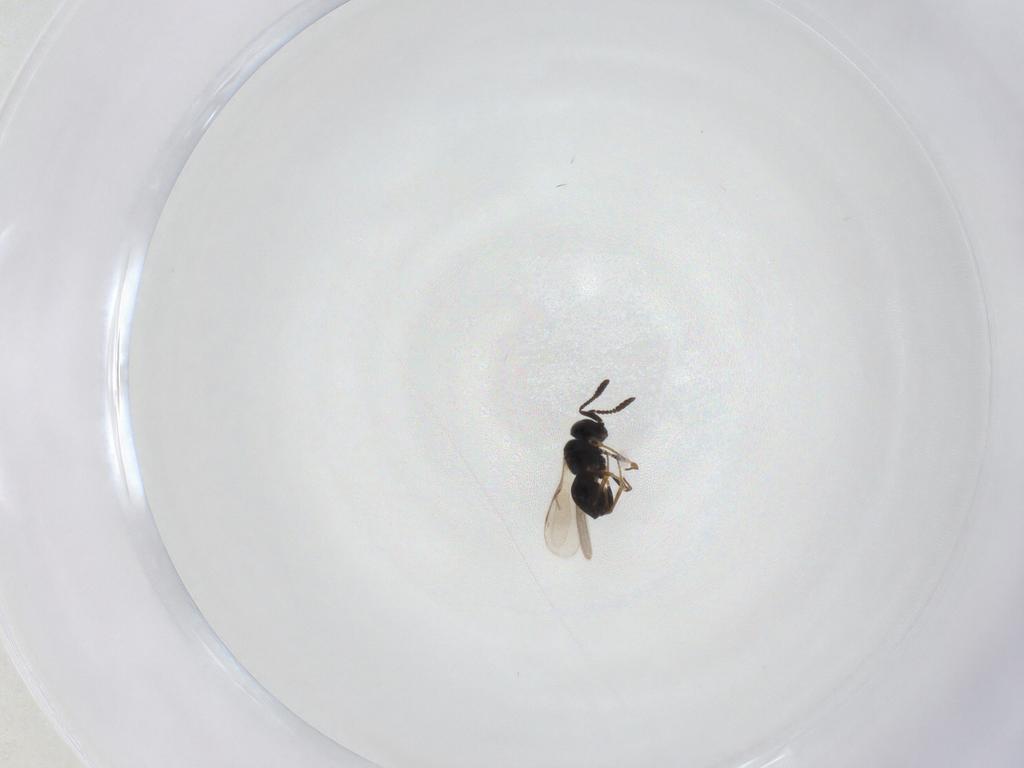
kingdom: Animalia
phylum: Arthropoda
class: Insecta
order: Hymenoptera
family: Scelionidae
